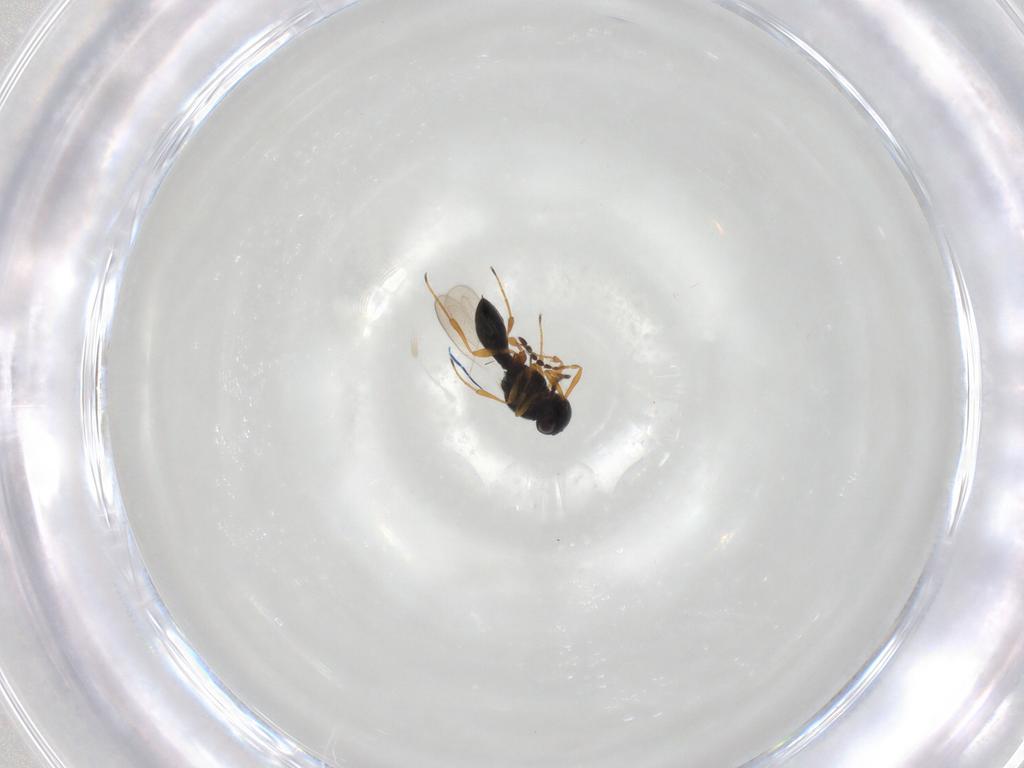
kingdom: Animalia
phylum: Arthropoda
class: Insecta
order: Hymenoptera
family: Platygastridae
